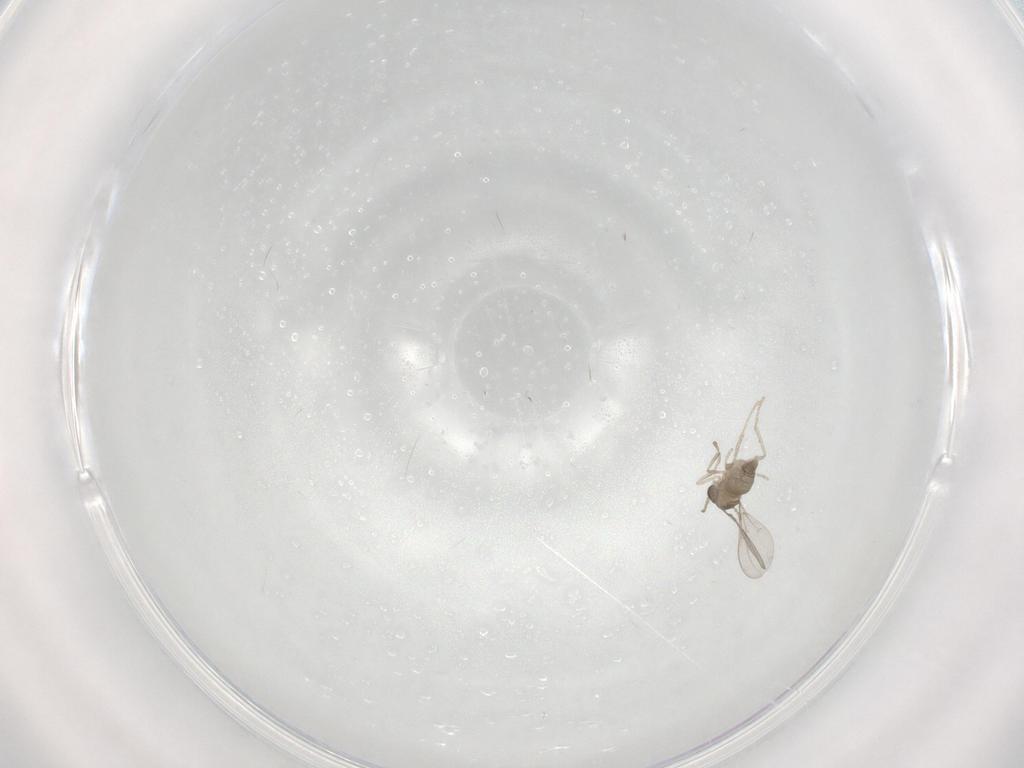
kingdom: Animalia
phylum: Arthropoda
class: Insecta
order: Diptera
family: Cecidomyiidae
